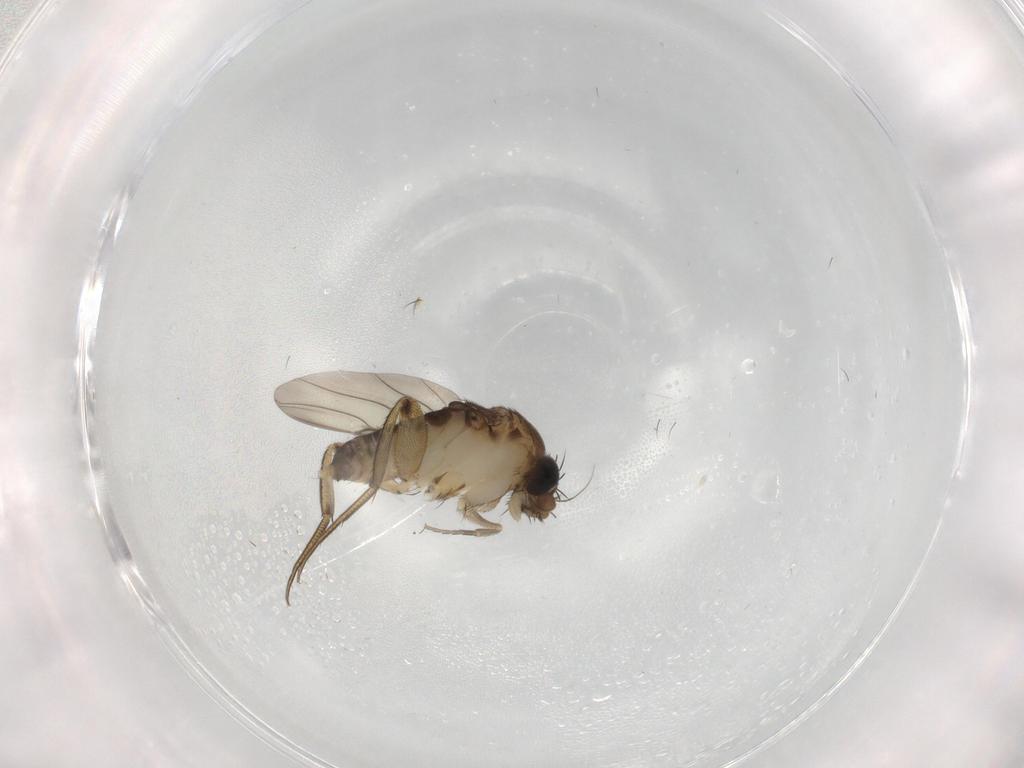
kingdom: Animalia
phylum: Arthropoda
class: Insecta
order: Diptera
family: Phoridae
